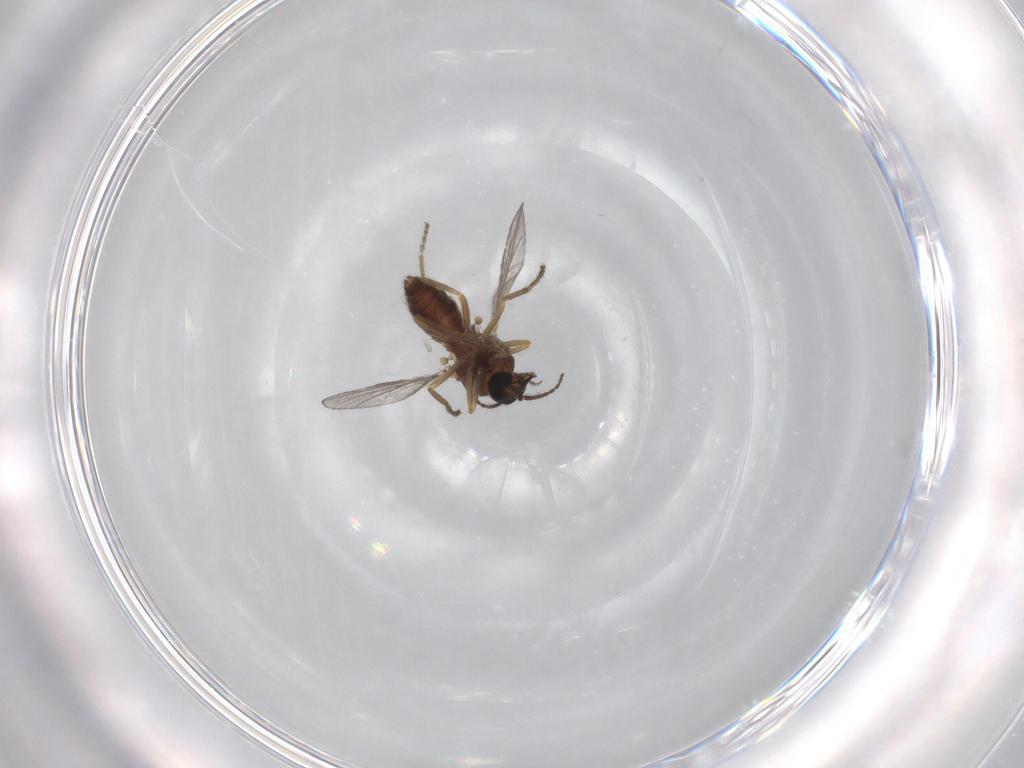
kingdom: Animalia
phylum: Arthropoda
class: Insecta
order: Diptera
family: Ceratopogonidae
